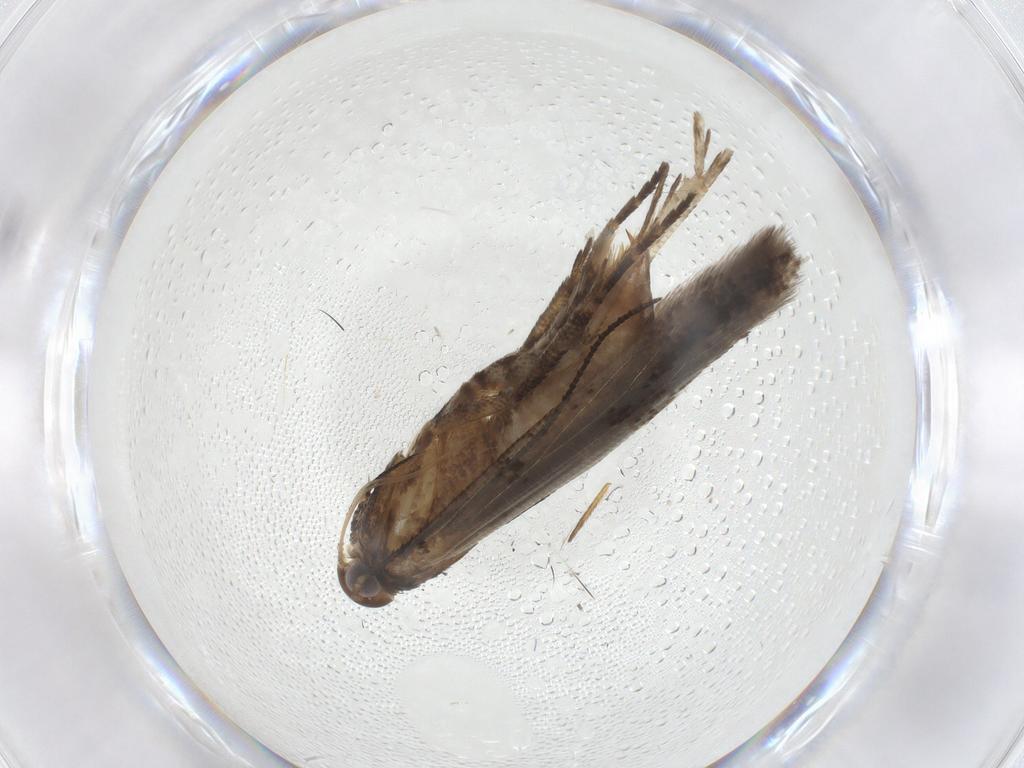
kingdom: Animalia
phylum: Arthropoda
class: Insecta
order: Lepidoptera
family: Gelechiidae
